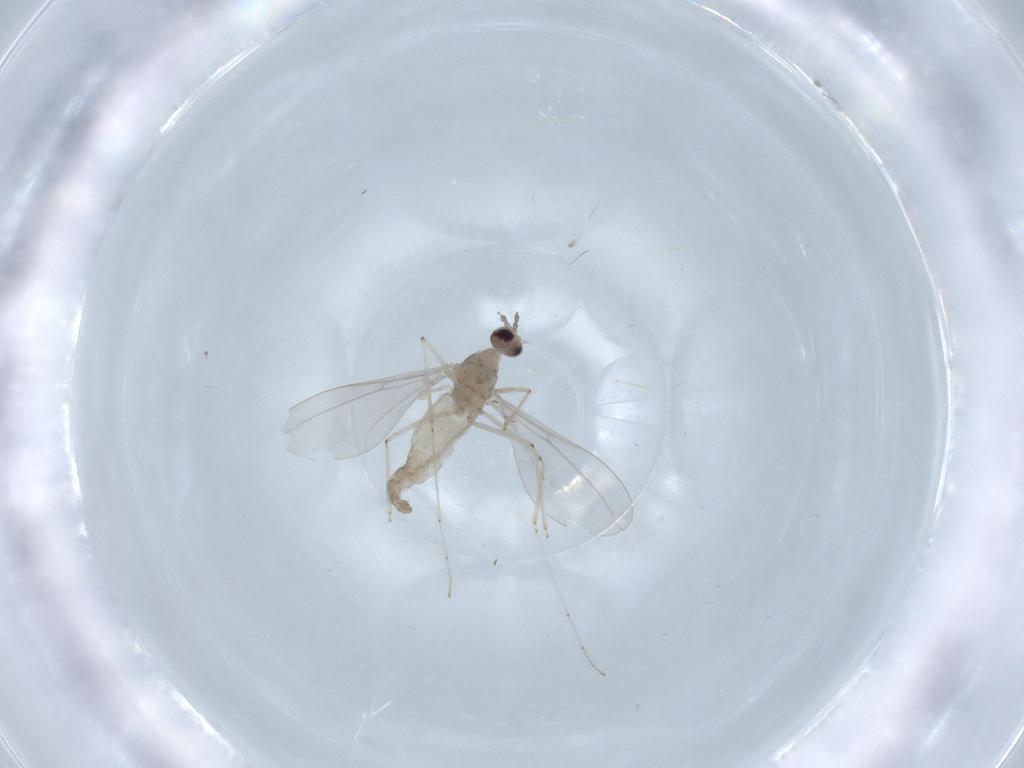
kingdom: Animalia
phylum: Arthropoda
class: Insecta
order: Diptera
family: Cecidomyiidae
